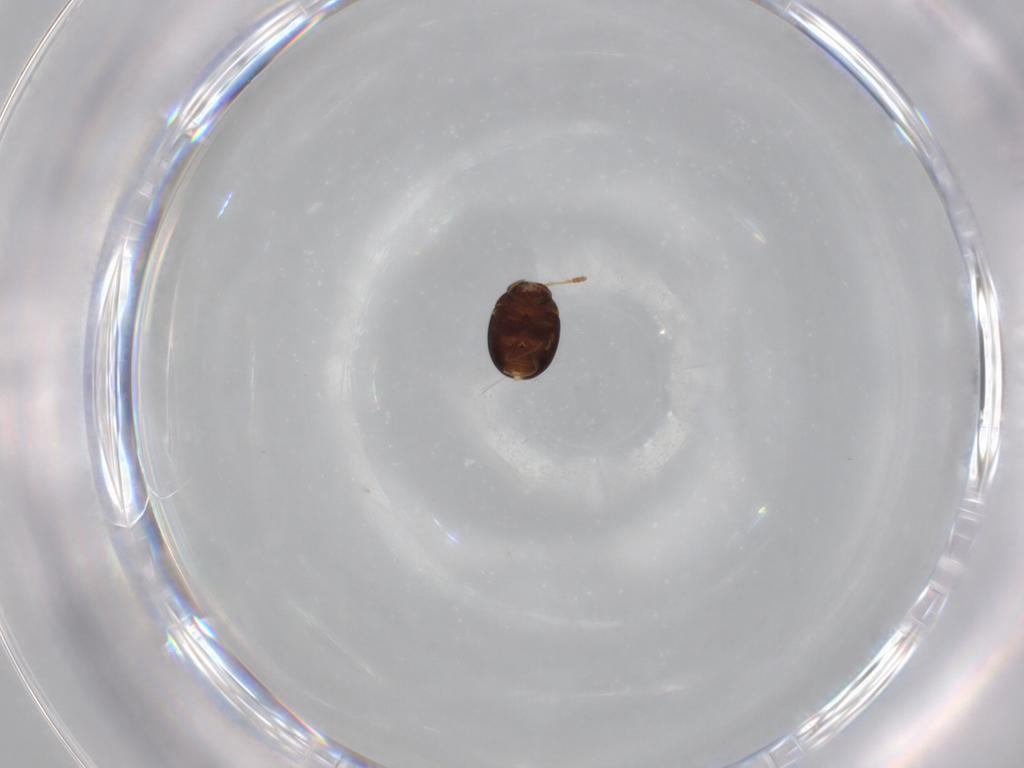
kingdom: Animalia
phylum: Arthropoda
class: Insecta
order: Coleoptera
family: Leiodidae
